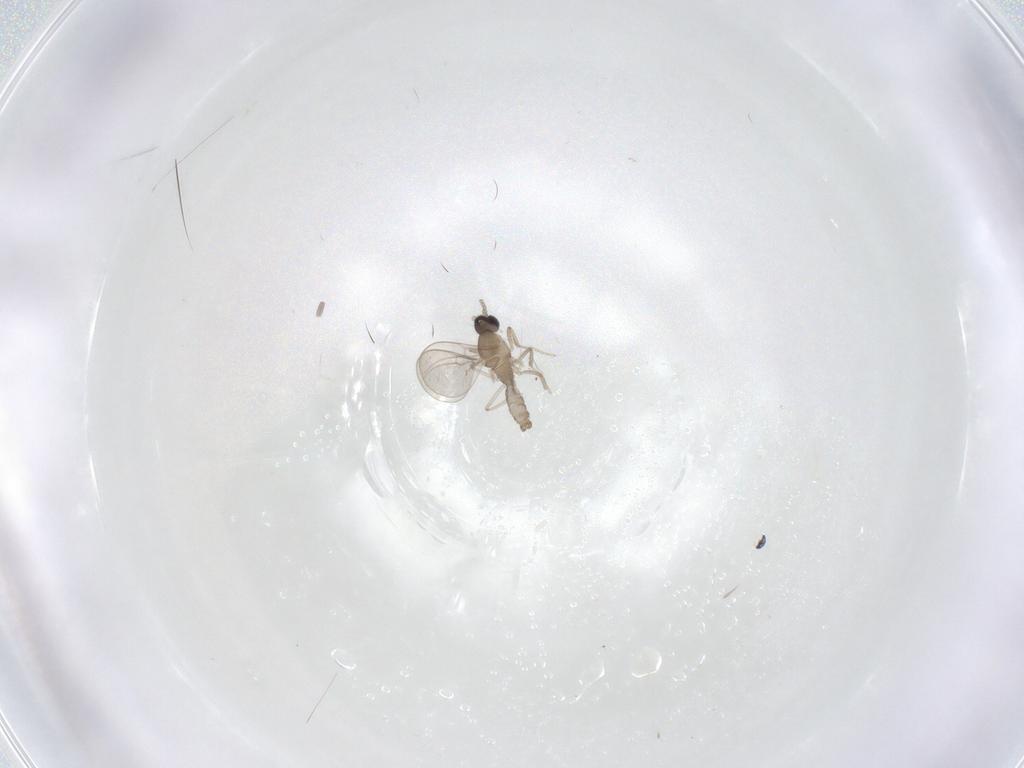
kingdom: Animalia
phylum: Arthropoda
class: Insecta
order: Diptera
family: Cecidomyiidae
